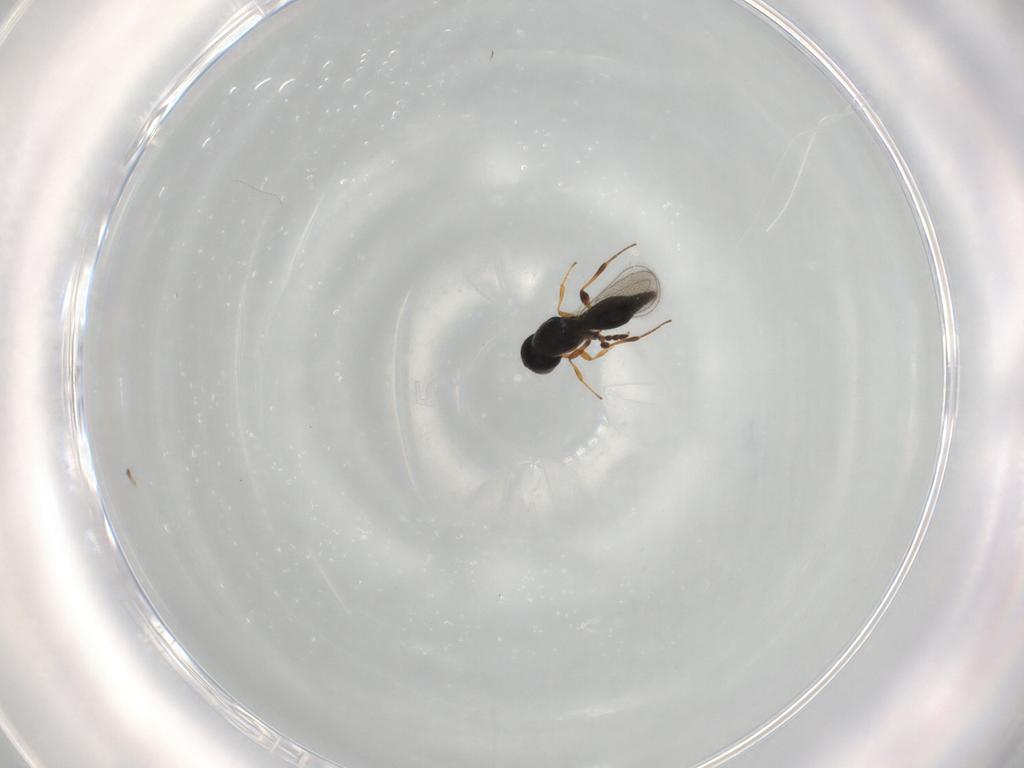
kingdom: Animalia
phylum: Arthropoda
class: Insecta
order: Hymenoptera
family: Platygastridae
